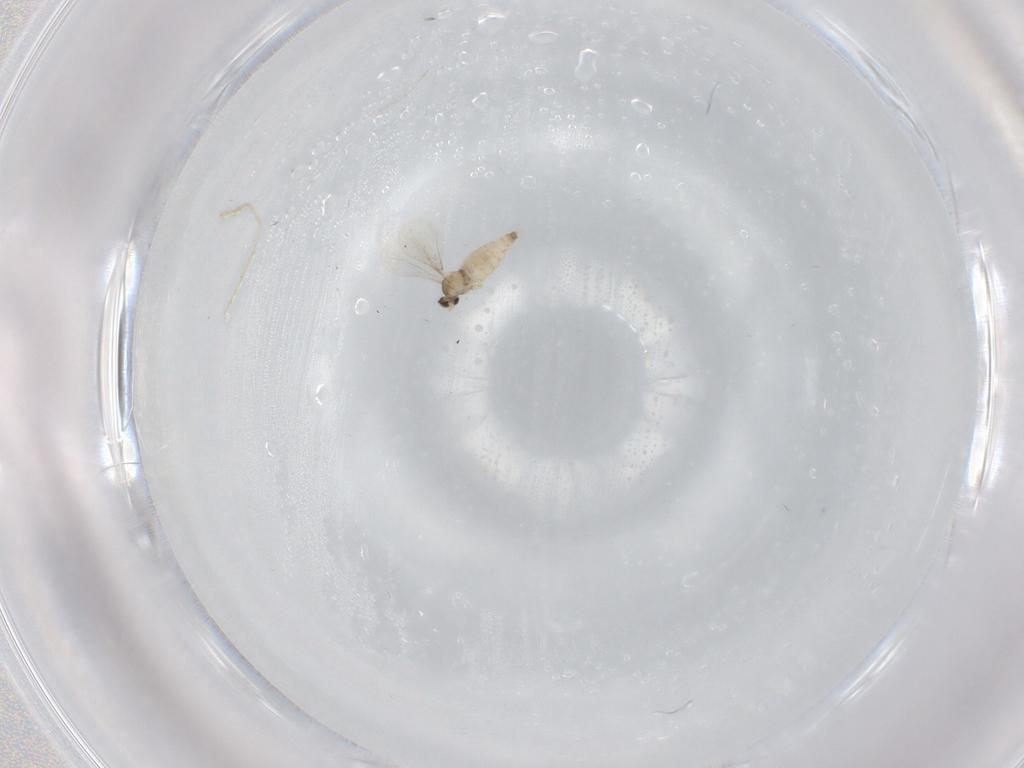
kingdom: Animalia
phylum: Arthropoda
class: Insecta
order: Diptera
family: Cecidomyiidae
